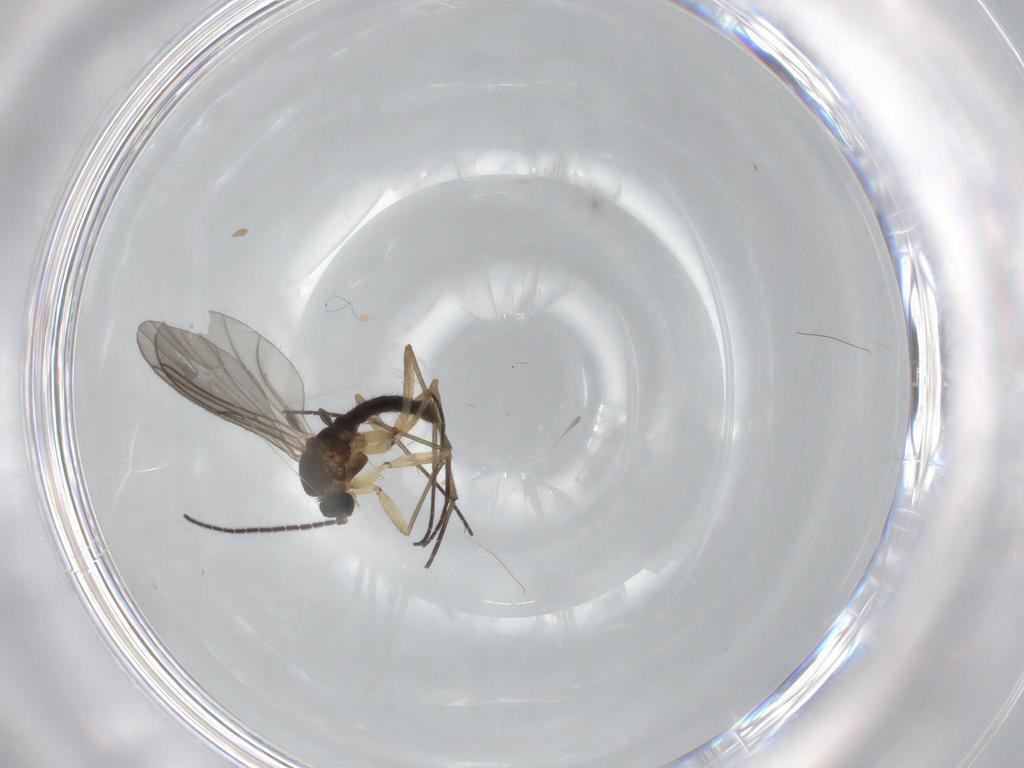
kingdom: Animalia
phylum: Arthropoda
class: Insecta
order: Diptera
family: Sciaridae
